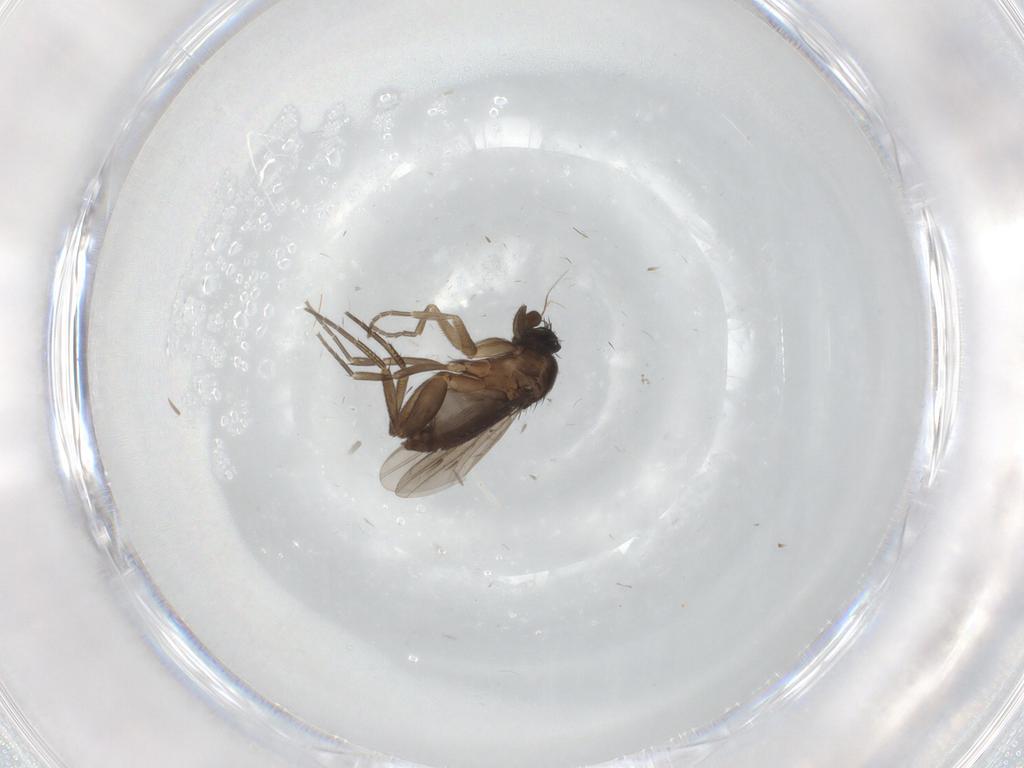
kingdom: Animalia
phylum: Arthropoda
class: Insecta
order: Diptera
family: Phoridae
